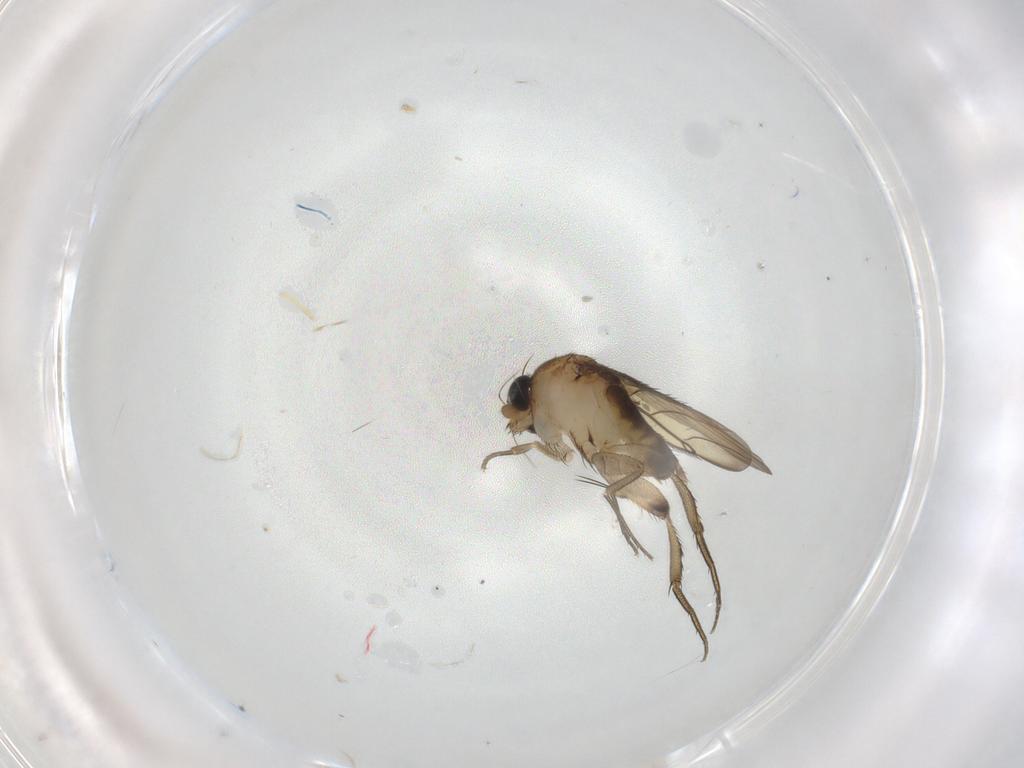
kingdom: Animalia
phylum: Arthropoda
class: Insecta
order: Diptera
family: Phoridae
